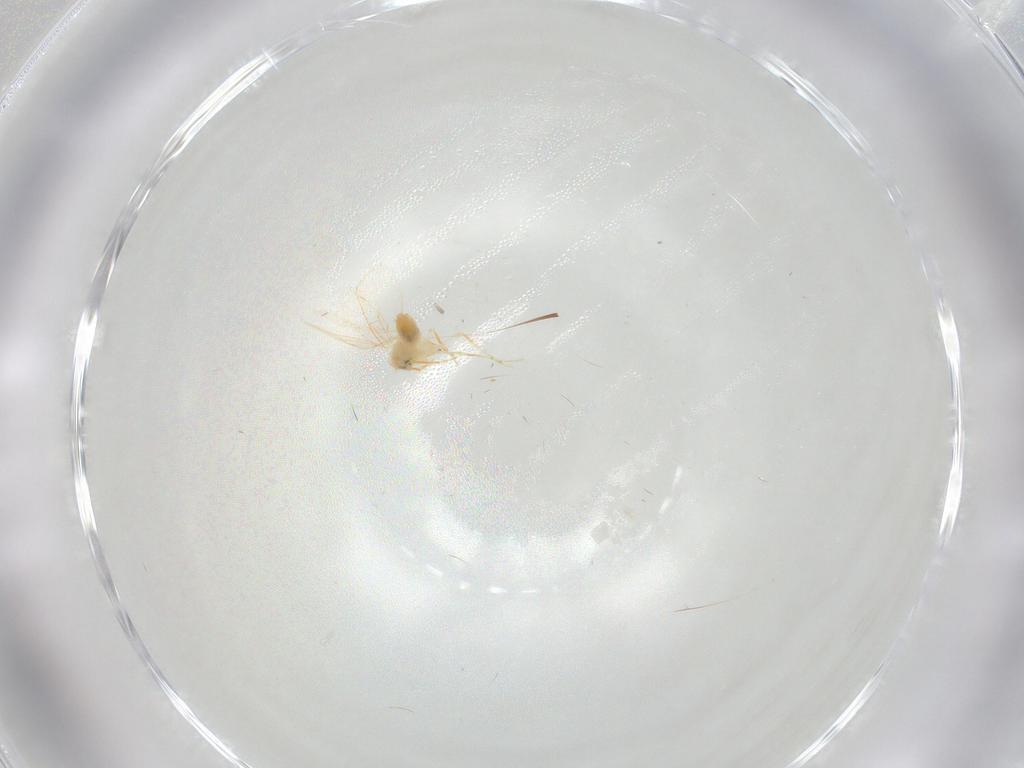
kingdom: Animalia
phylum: Arthropoda
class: Insecta
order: Hemiptera
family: Aleyrodidae
